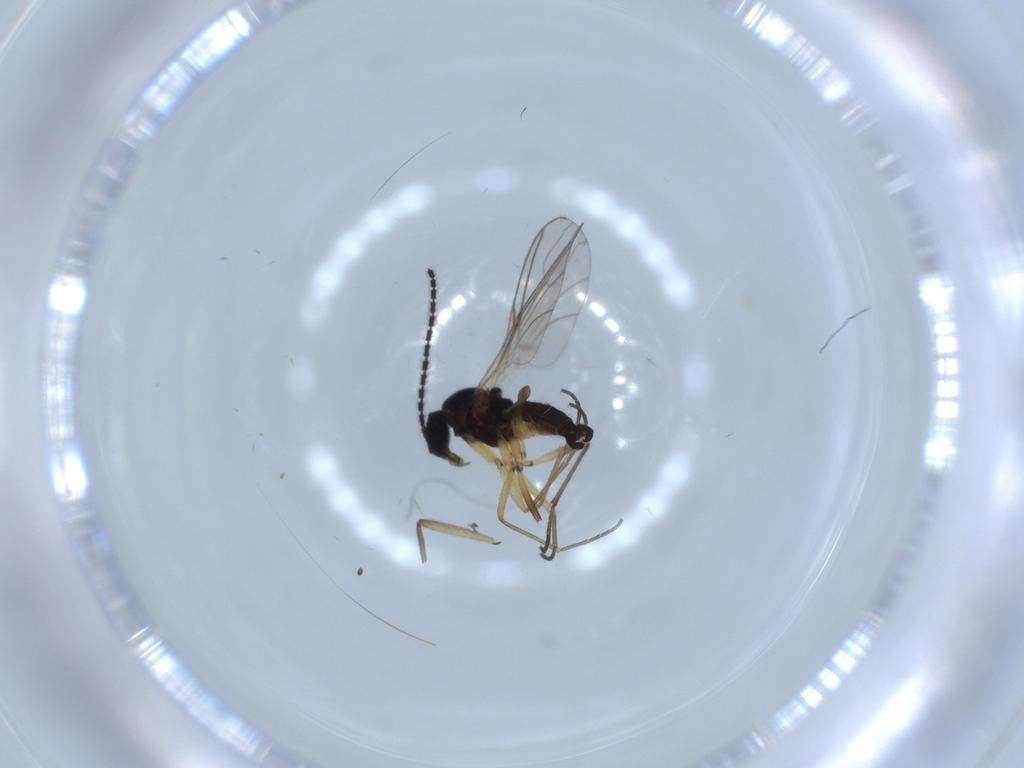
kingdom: Animalia
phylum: Arthropoda
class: Insecta
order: Diptera
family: Sciaridae
